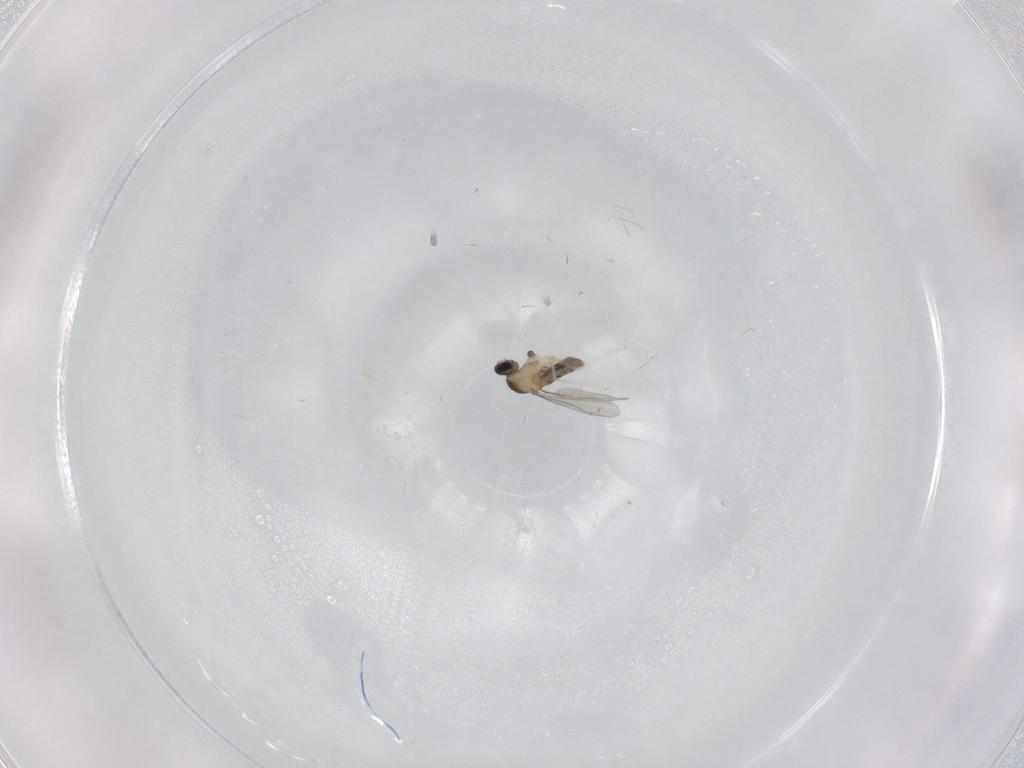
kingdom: Animalia
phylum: Arthropoda
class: Insecta
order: Diptera
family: Cecidomyiidae
